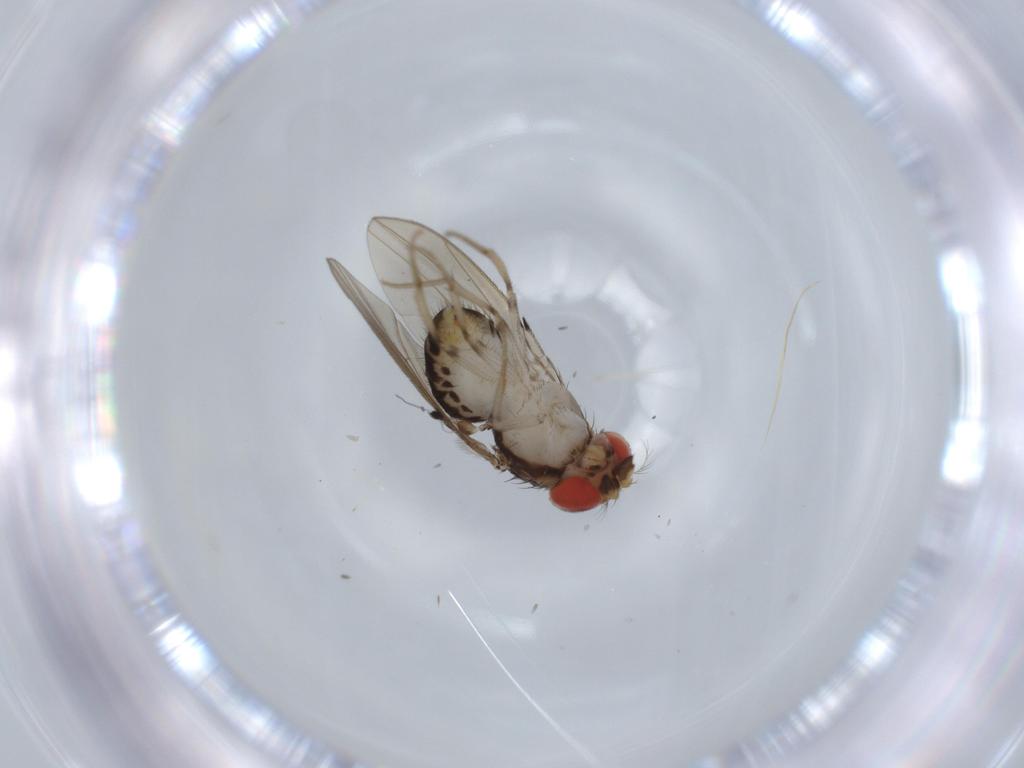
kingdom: Animalia
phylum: Arthropoda
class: Insecta
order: Diptera
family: Drosophilidae
